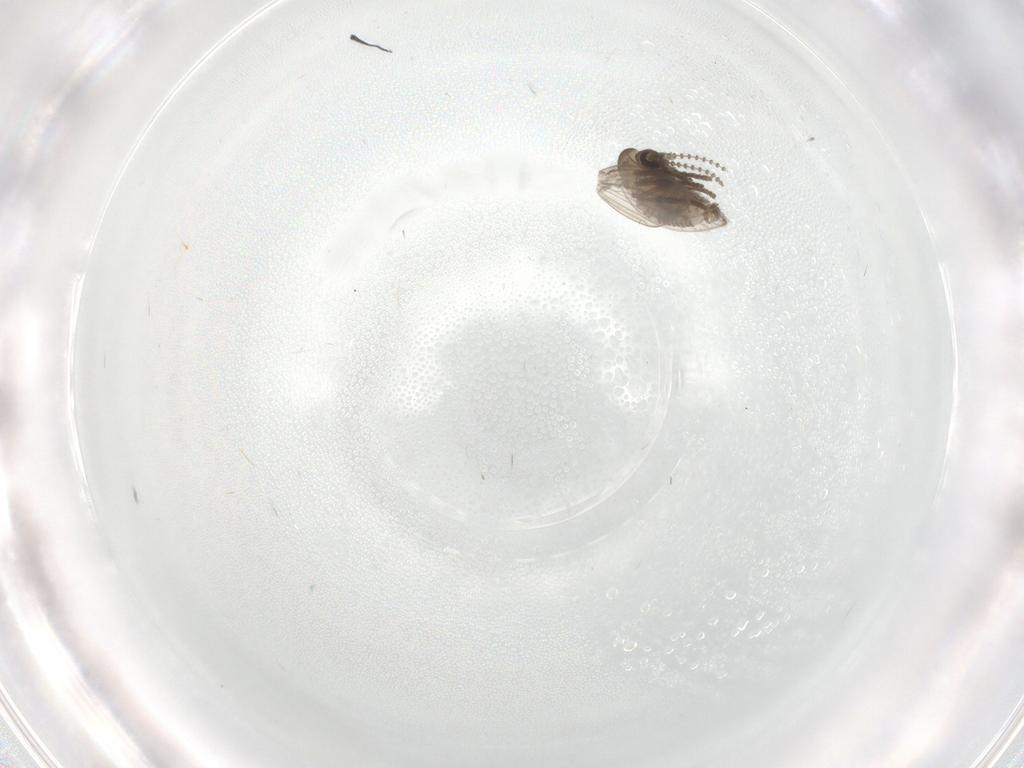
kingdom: Animalia
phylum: Arthropoda
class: Insecta
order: Diptera
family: Psychodidae
